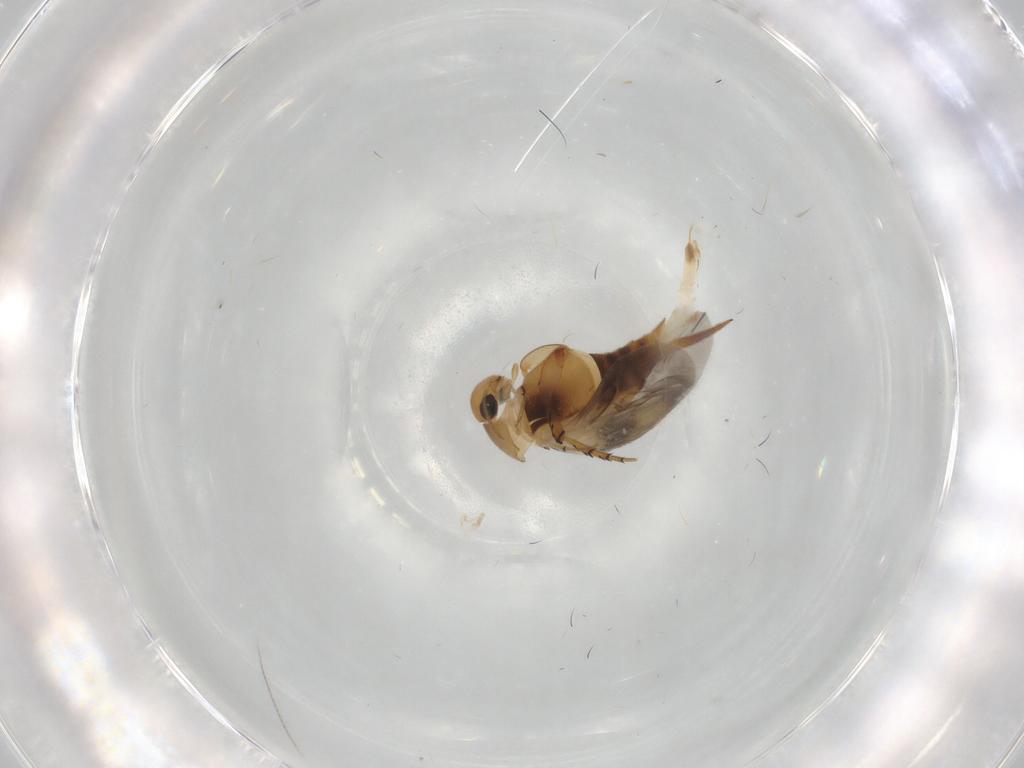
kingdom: Animalia
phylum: Arthropoda
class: Insecta
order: Coleoptera
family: Mordellidae
